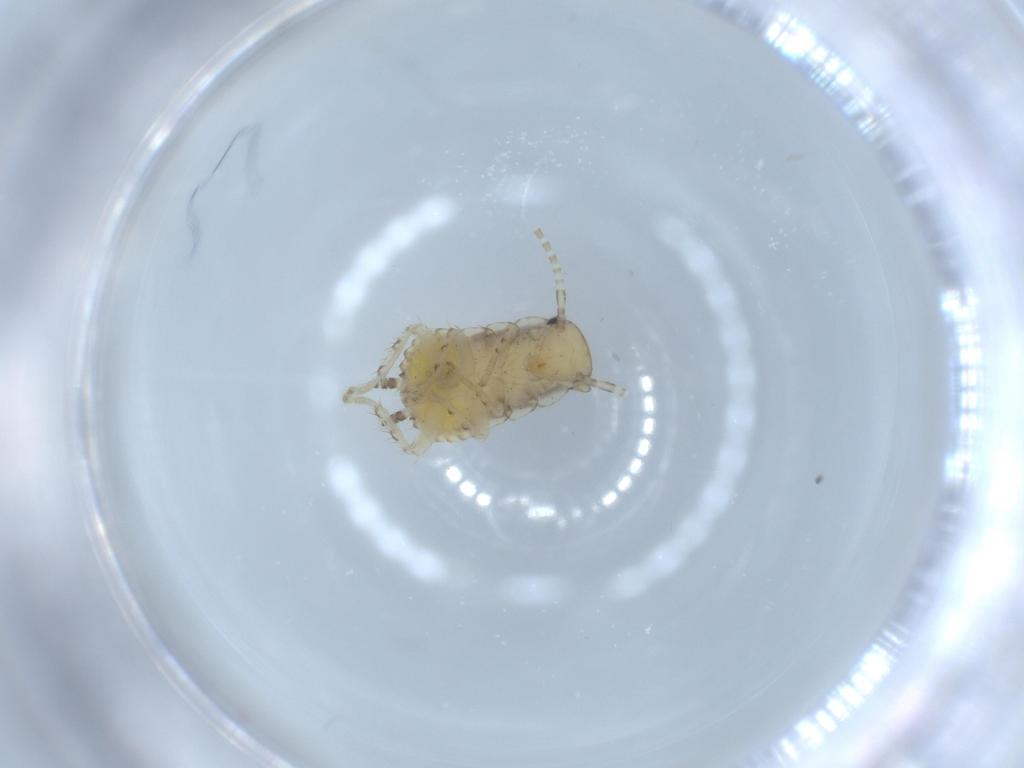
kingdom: Animalia
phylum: Arthropoda
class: Insecta
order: Blattodea
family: Ectobiidae
